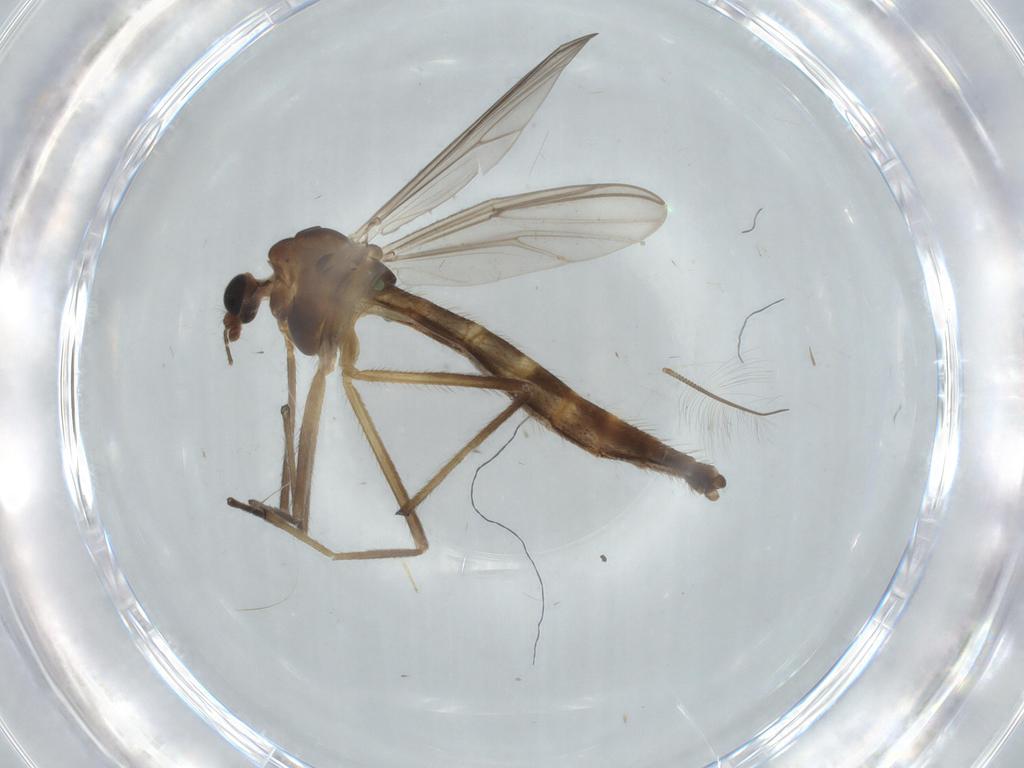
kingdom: Animalia
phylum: Arthropoda
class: Insecta
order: Diptera
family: Chironomidae
